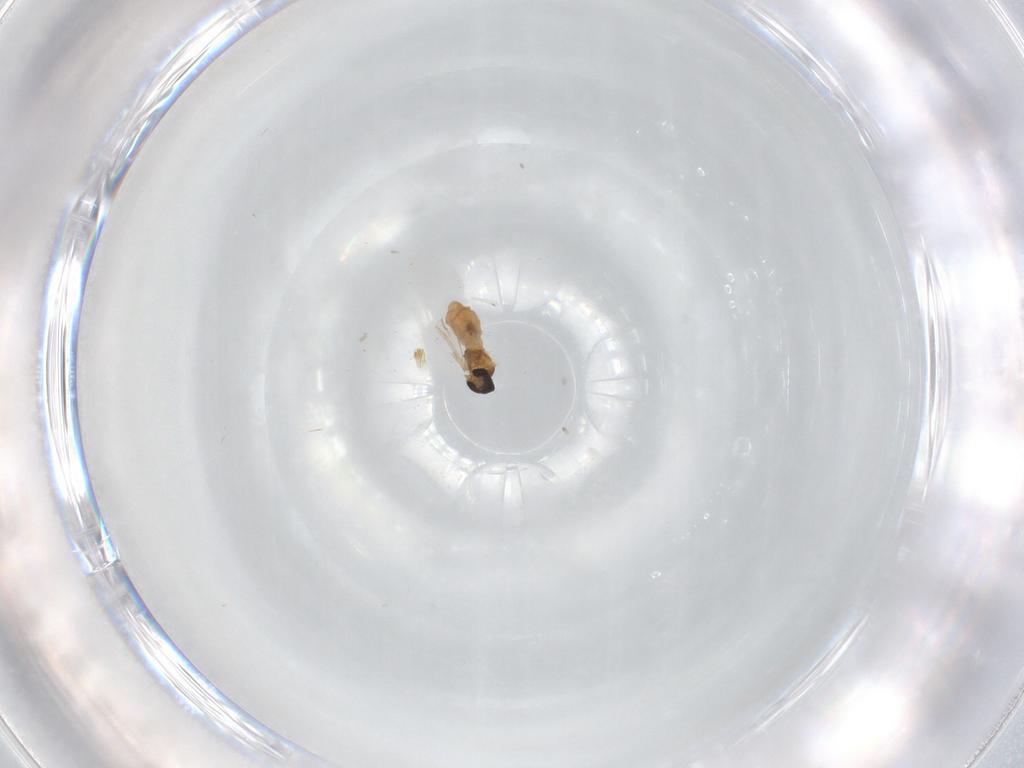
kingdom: Animalia
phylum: Arthropoda
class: Insecta
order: Diptera
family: Cecidomyiidae
